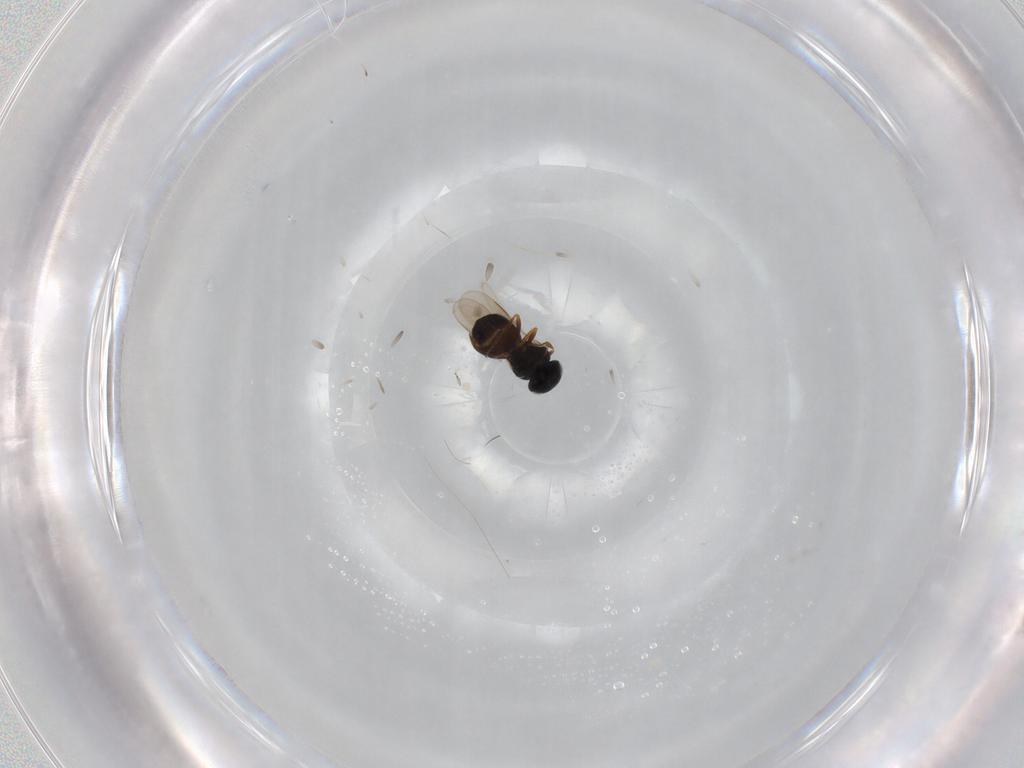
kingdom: Animalia
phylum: Arthropoda
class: Insecta
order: Hymenoptera
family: Scelionidae
